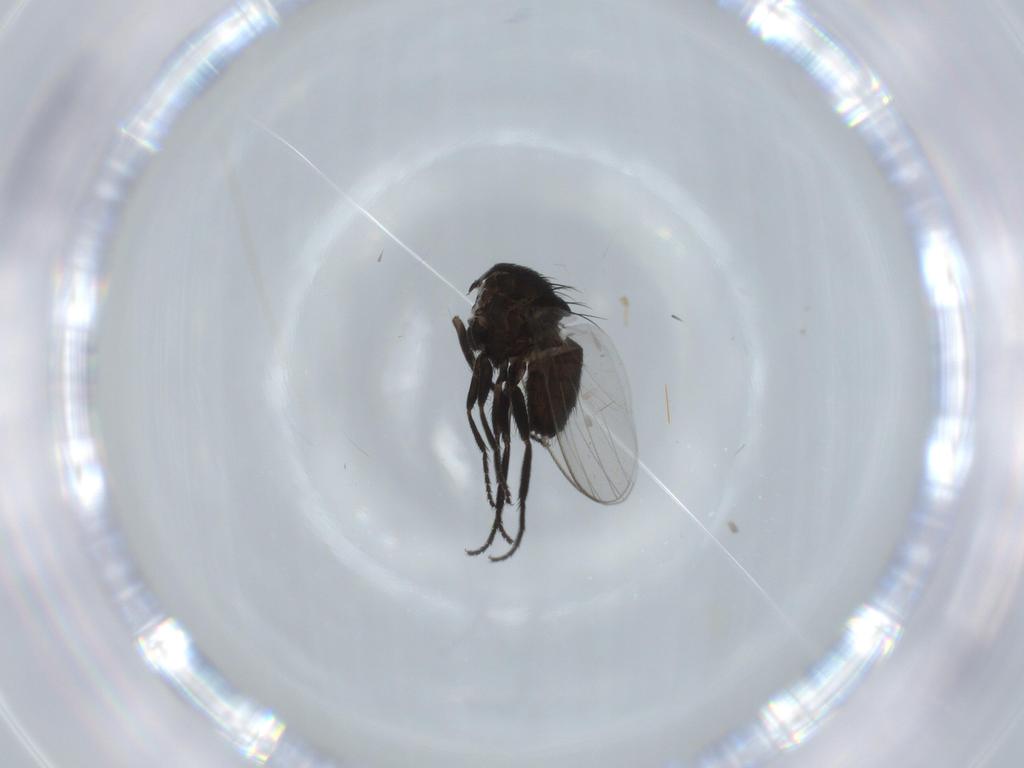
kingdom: Animalia
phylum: Arthropoda
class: Insecta
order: Diptera
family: Milichiidae
